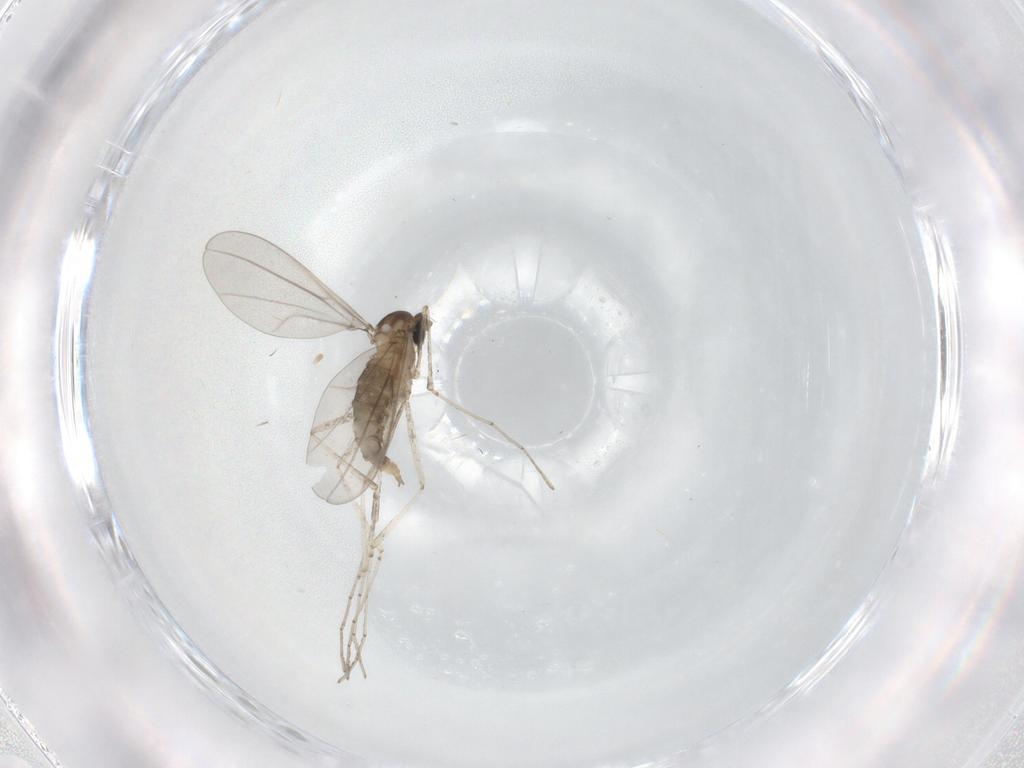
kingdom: Animalia
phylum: Arthropoda
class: Insecta
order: Diptera
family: Cecidomyiidae
